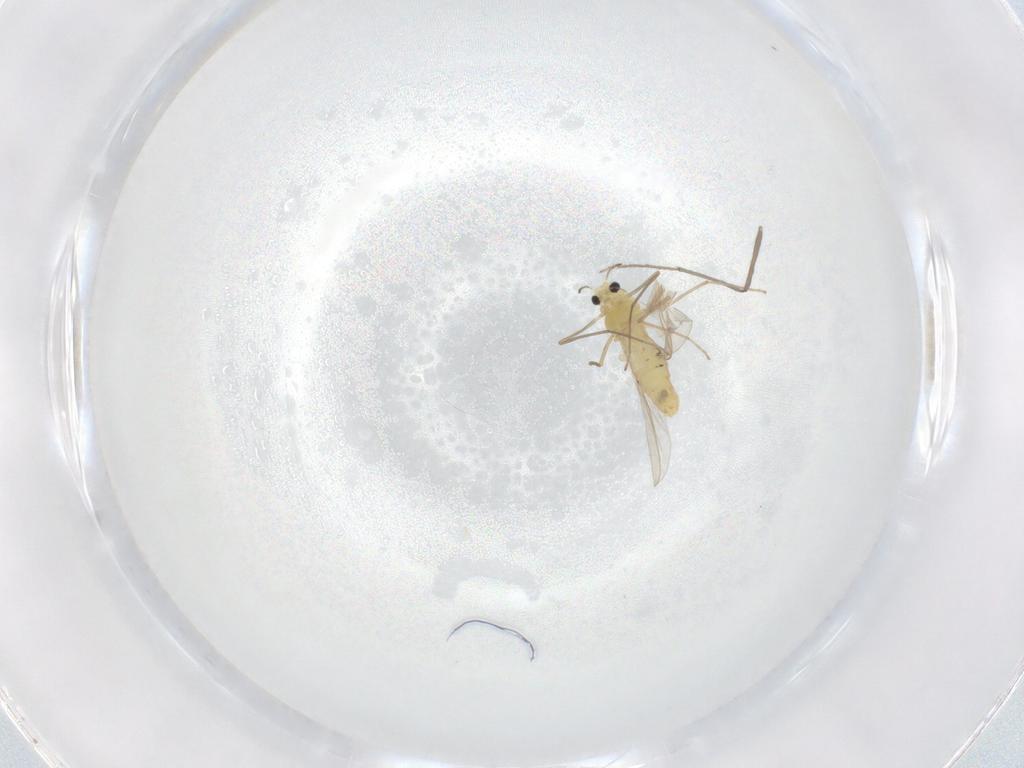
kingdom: Animalia
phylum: Arthropoda
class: Insecta
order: Diptera
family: Chironomidae
